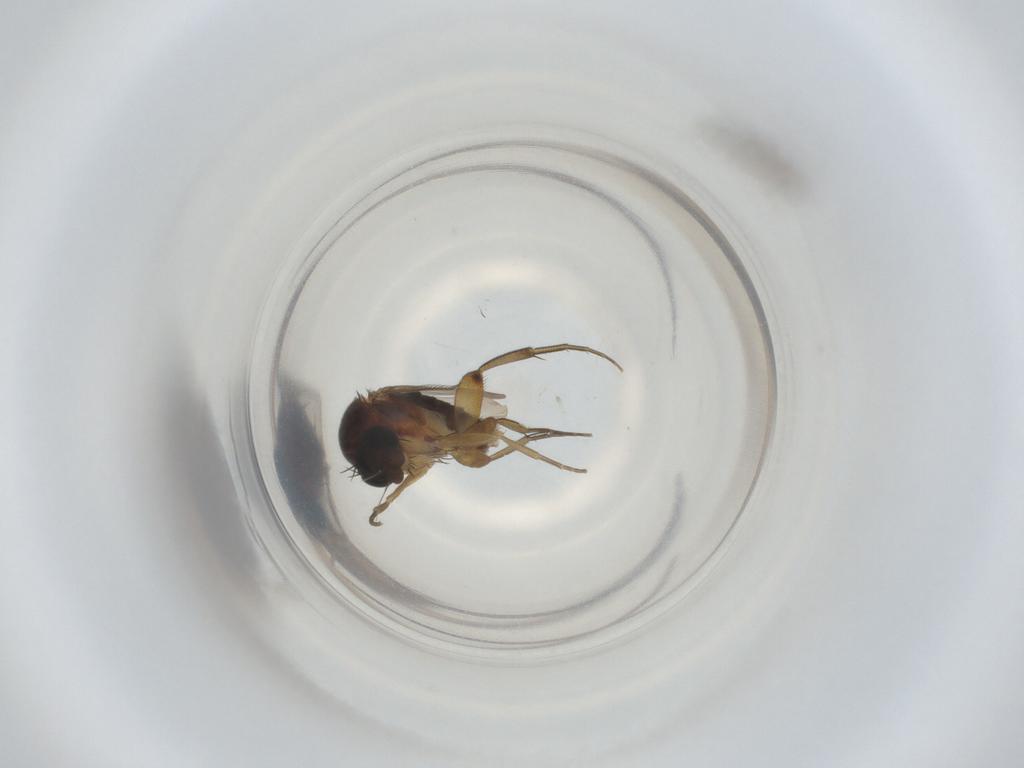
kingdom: Animalia
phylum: Arthropoda
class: Insecta
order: Diptera
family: Phoridae
